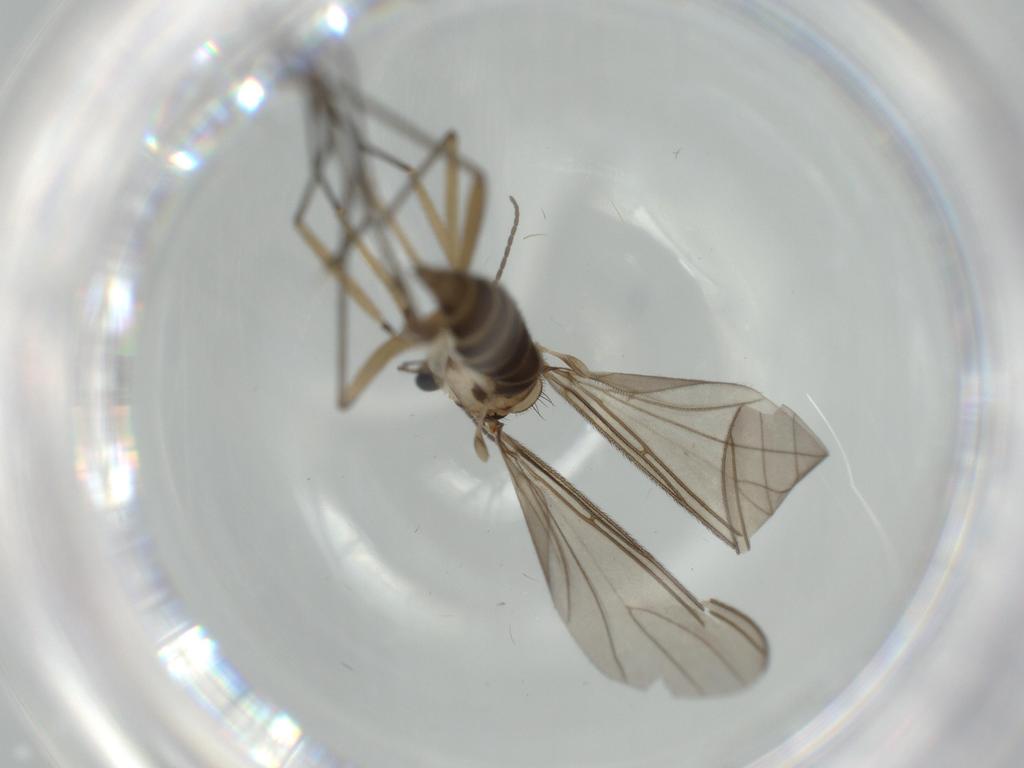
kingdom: Animalia
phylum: Arthropoda
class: Insecta
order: Diptera
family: Sciaridae
